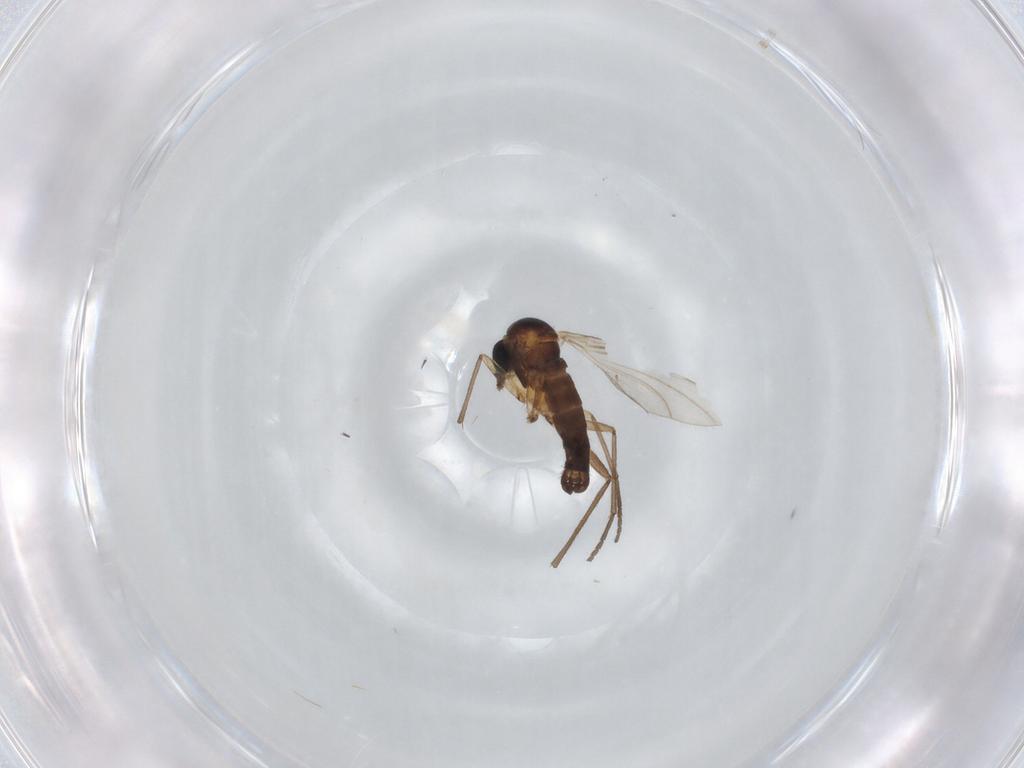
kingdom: Animalia
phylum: Arthropoda
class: Insecta
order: Diptera
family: Sciaridae
